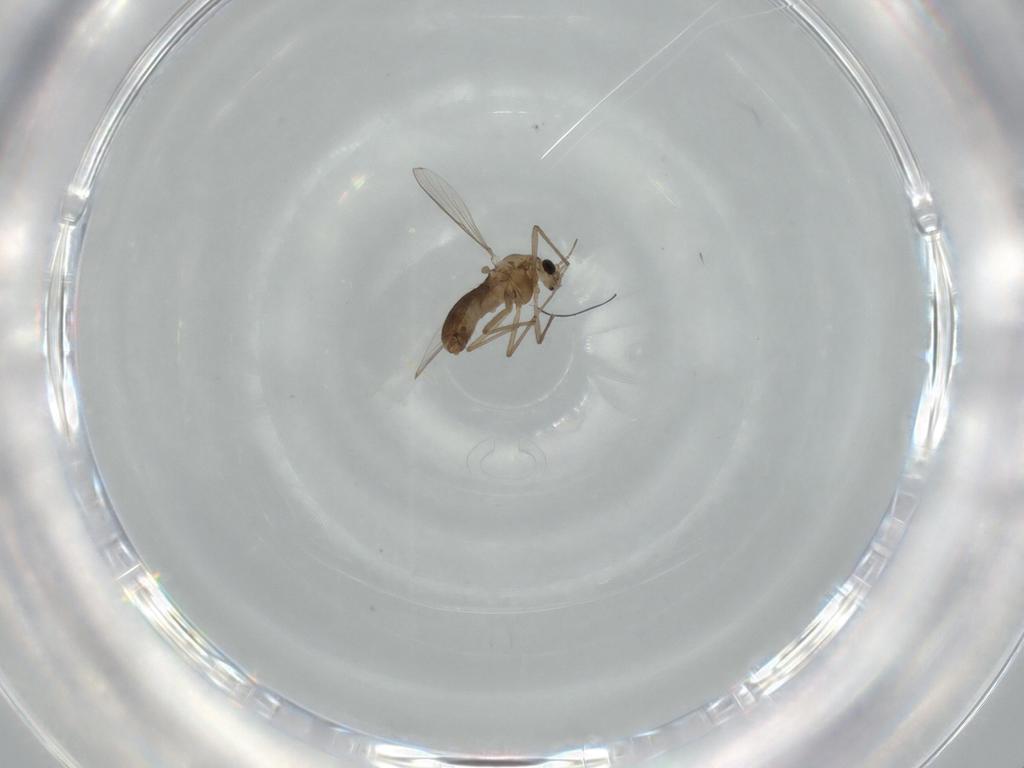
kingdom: Animalia
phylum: Arthropoda
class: Insecta
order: Diptera
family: Chironomidae
